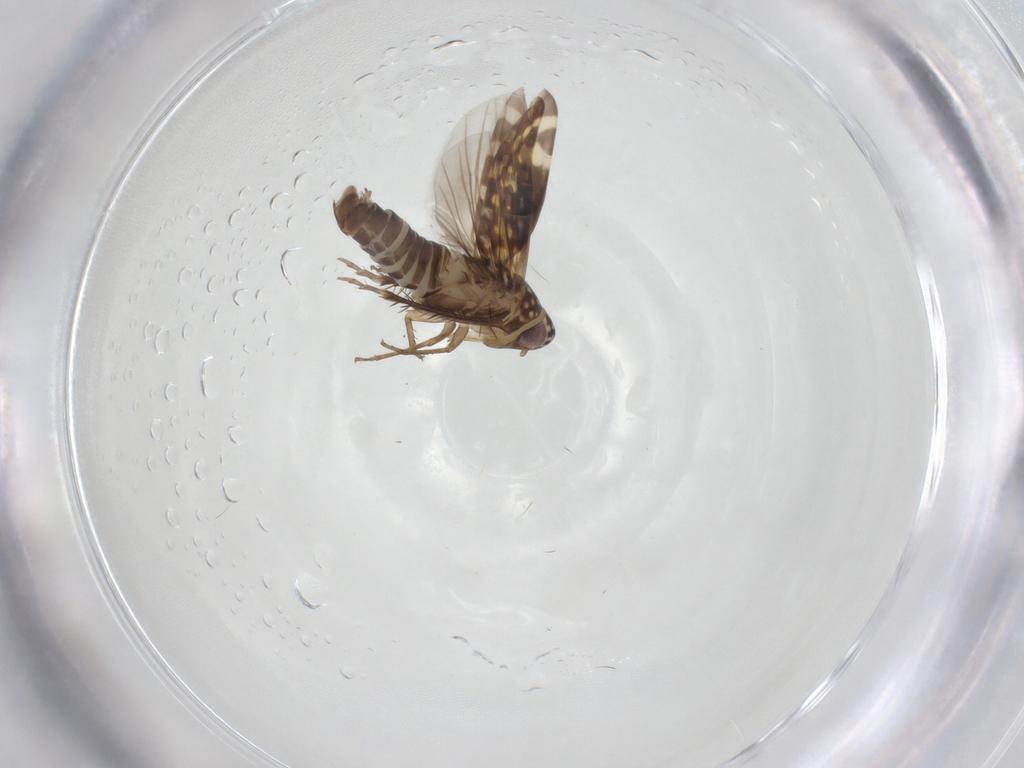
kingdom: Animalia
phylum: Arthropoda
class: Insecta
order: Hemiptera
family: Cicadellidae
